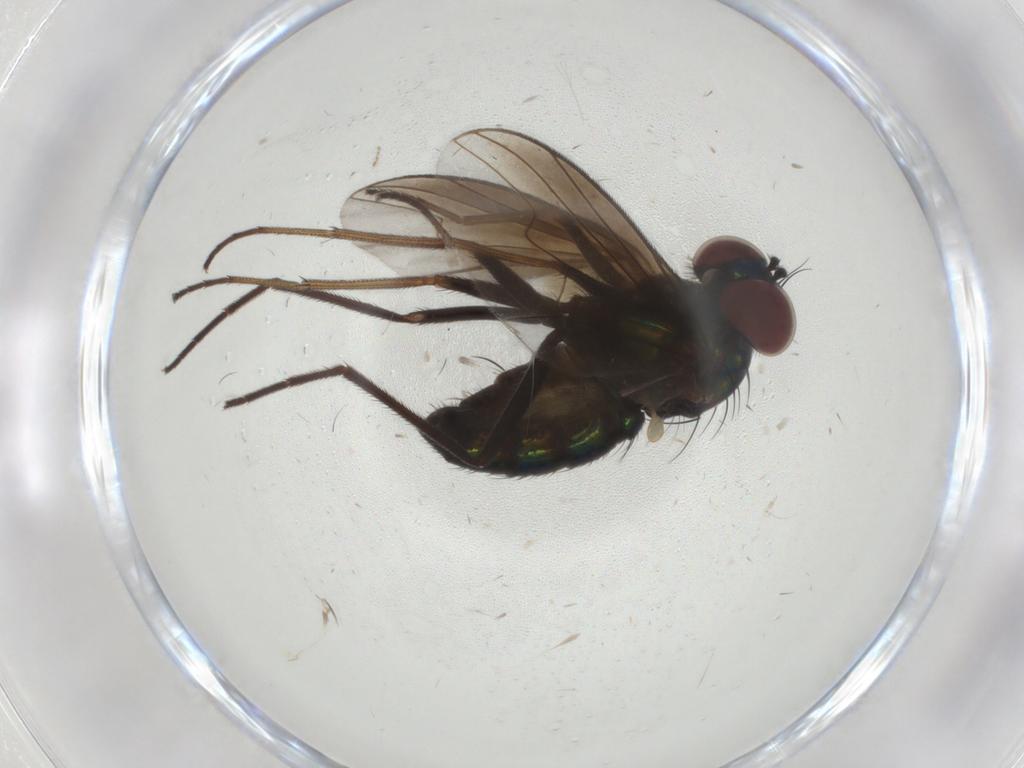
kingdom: Animalia
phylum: Arthropoda
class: Insecta
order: Diptera
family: Dolichopodidae
